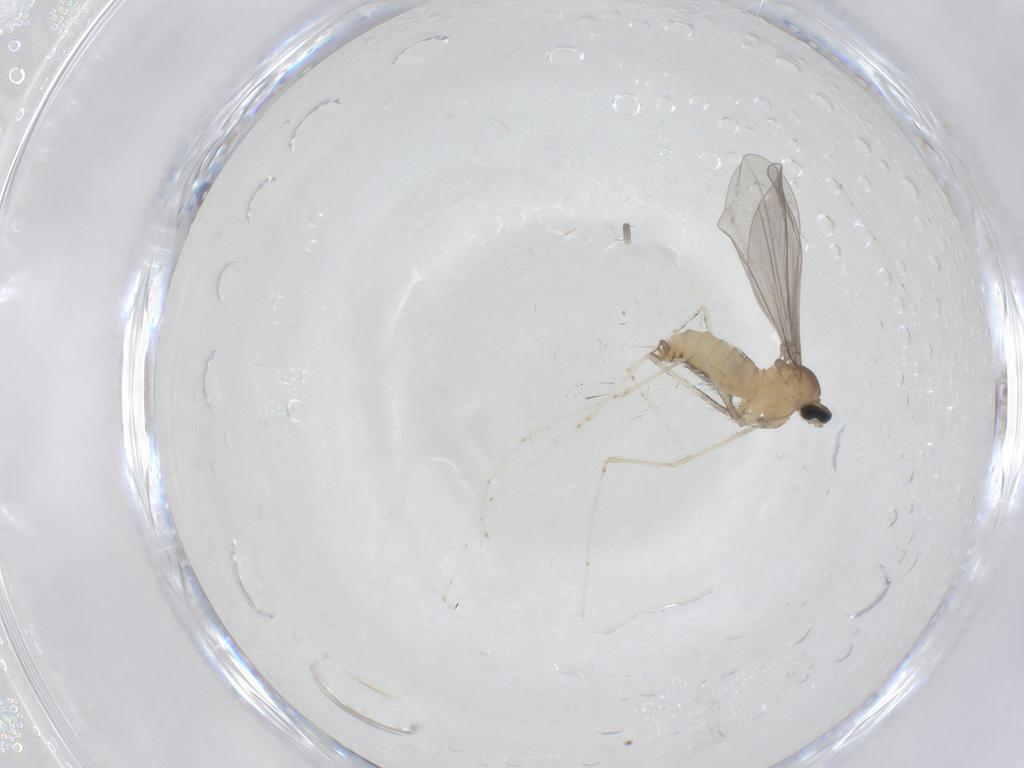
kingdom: Animalia
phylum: Arthropoda
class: Insecta
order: Diptera
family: Cecidomyiidae
